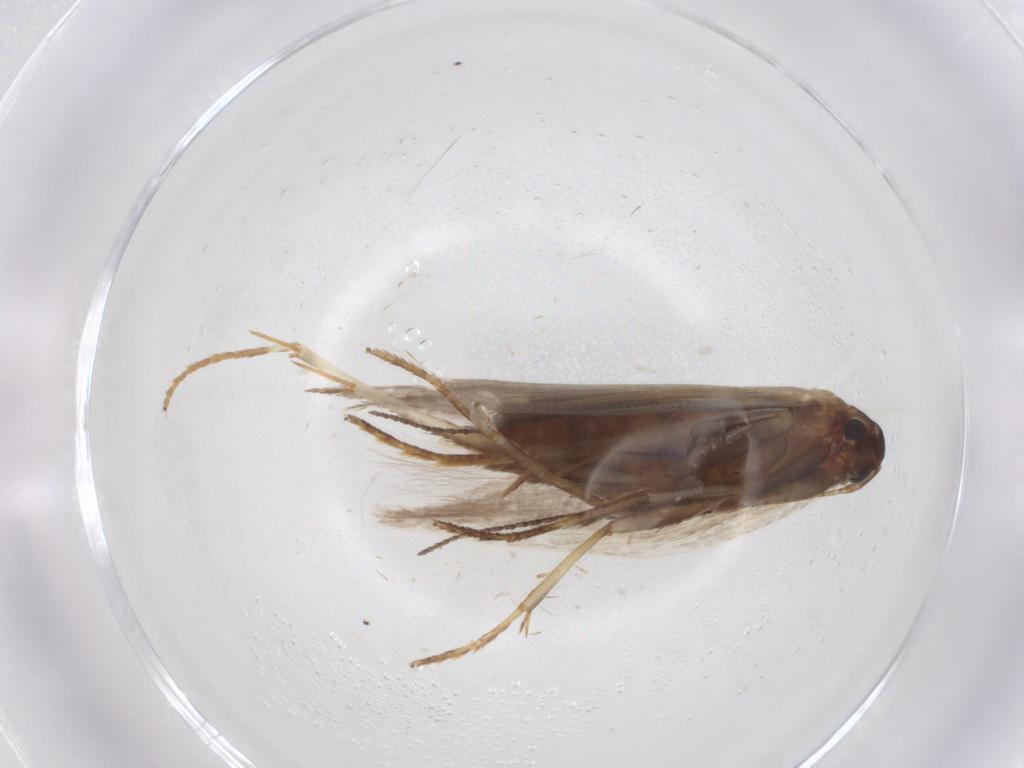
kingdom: Animalia
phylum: Arthropoda
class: Insecta
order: Lepidoptera
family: Erebidae
